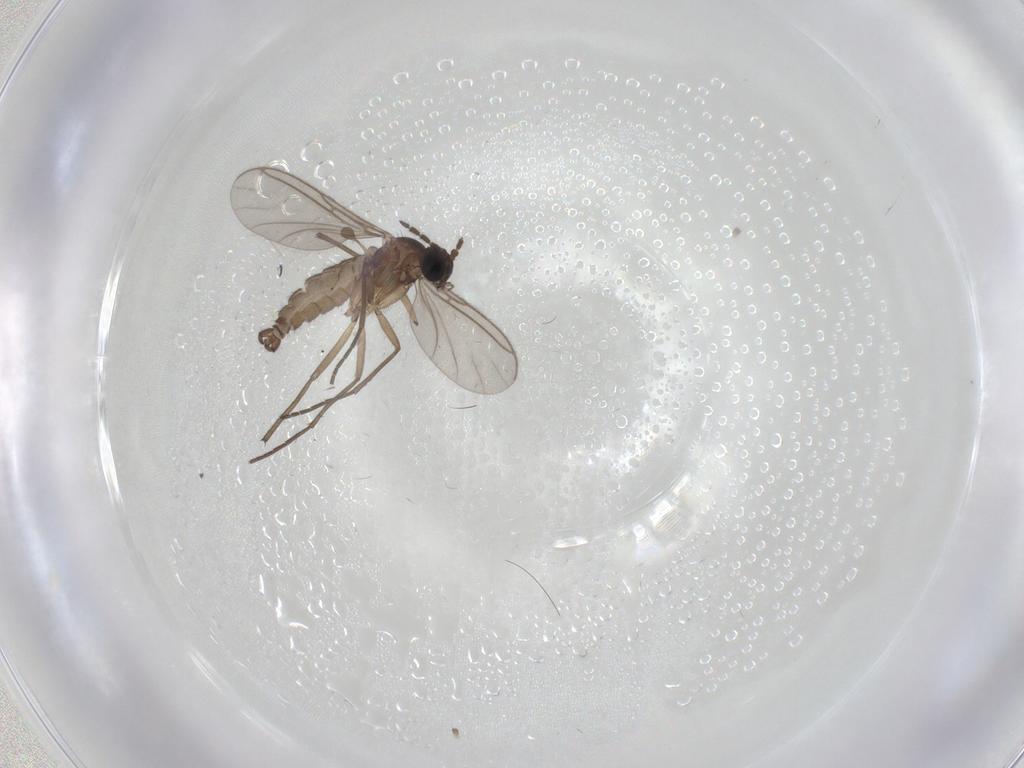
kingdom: Animalia
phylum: Arthropoda
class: Insecta
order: Diptera
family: Sciaridae
